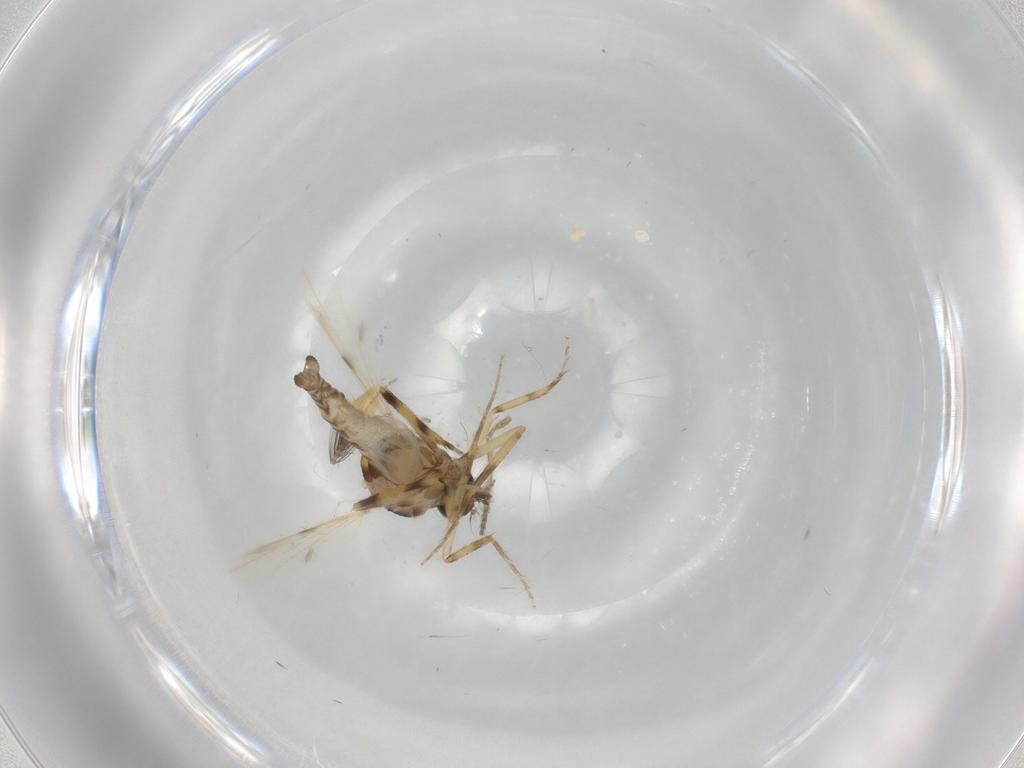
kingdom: Animalia
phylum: Arthropoda
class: Insecta
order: Diptera
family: Ceratopogonidae
